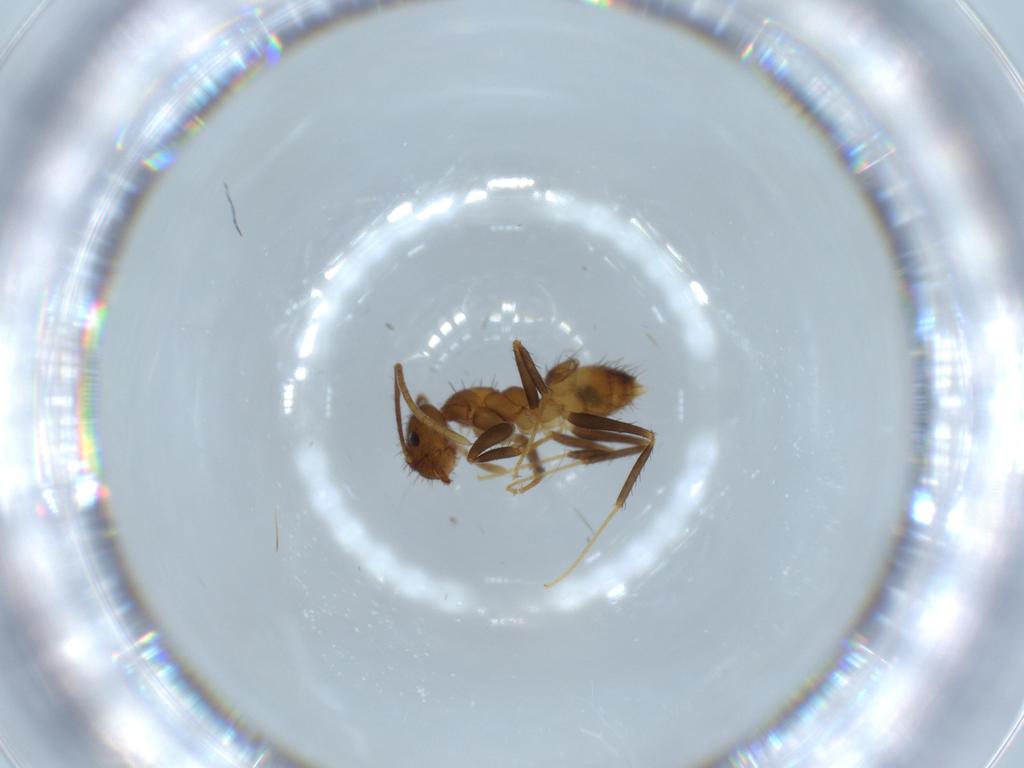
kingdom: Animalia
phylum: Arthropoda
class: Insecta
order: Hymenoptera
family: Formicidae
